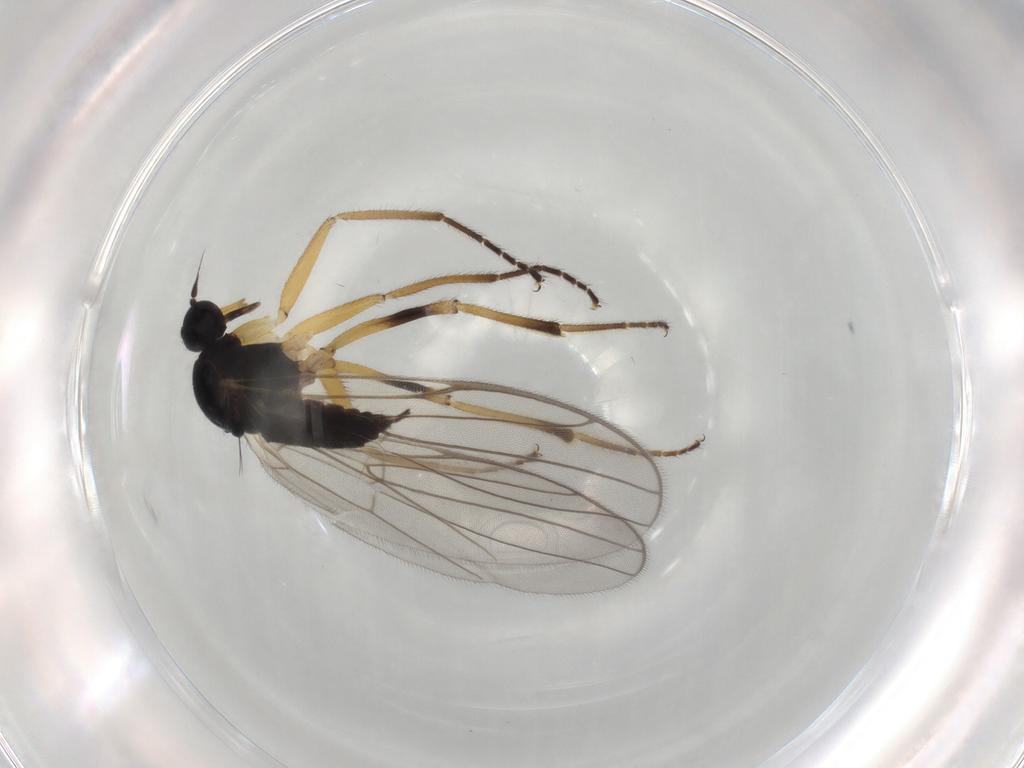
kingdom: Animalia
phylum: Arthropoda
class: Insecta
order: Diptera
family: Hybotidae
